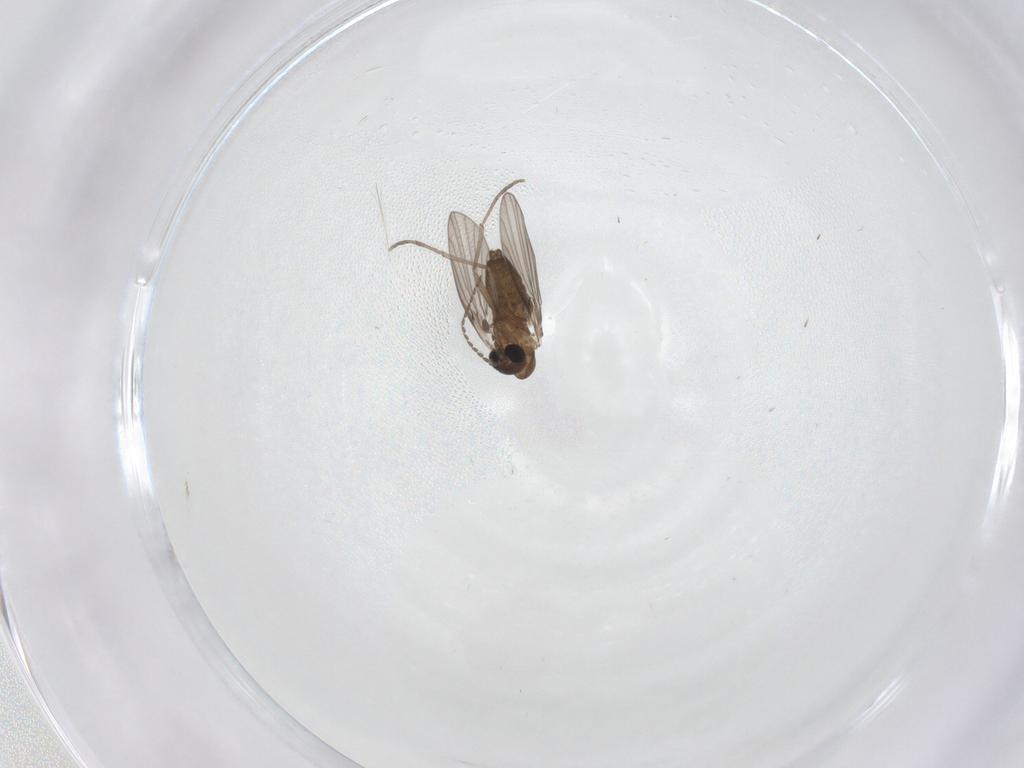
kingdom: Animalia
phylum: Arthropoda
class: Insecta
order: Diptera
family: Psychodidae
